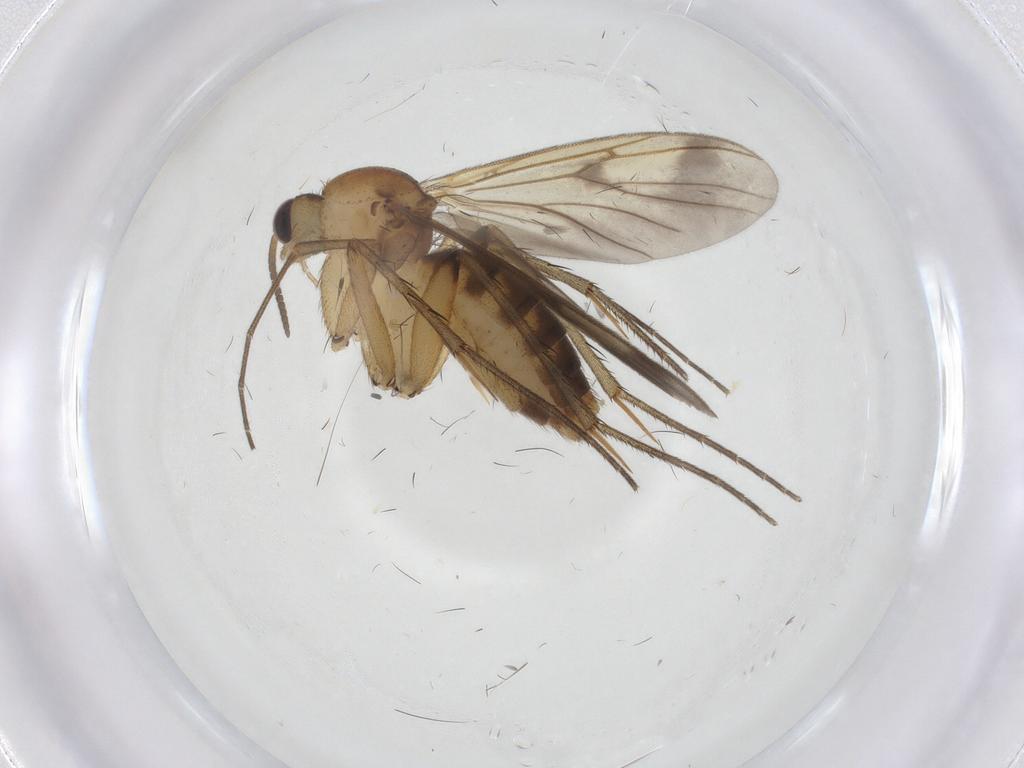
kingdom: Animalia
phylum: Arthropoda
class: Insecta
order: Diptera
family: Mycetophilidae
